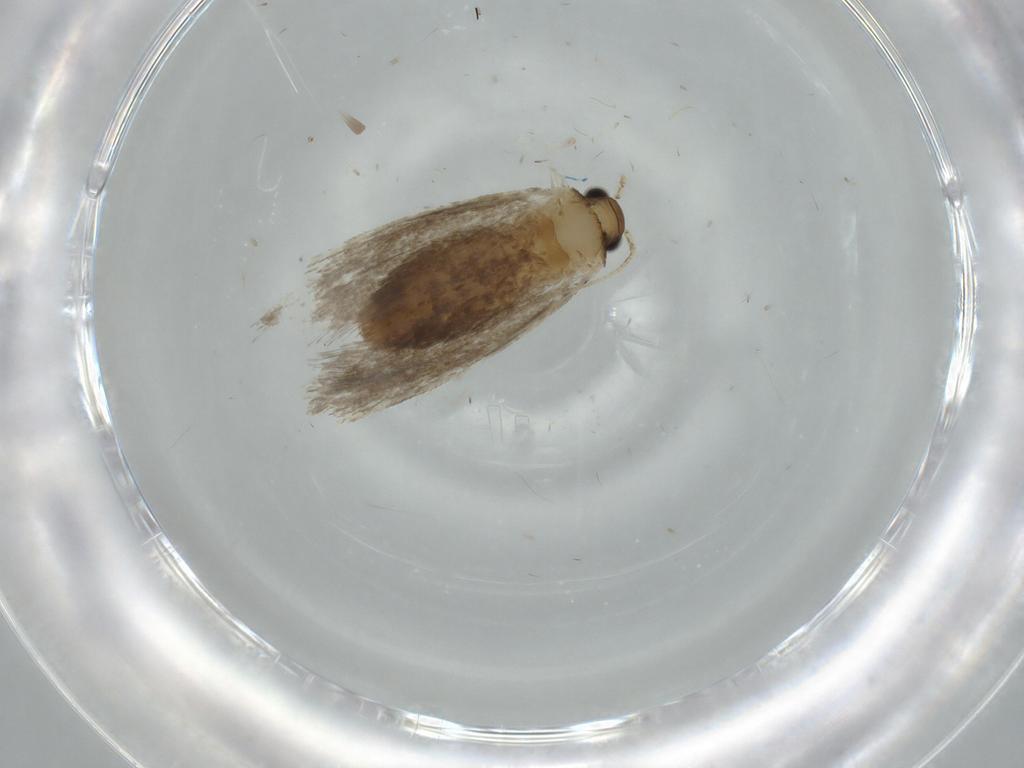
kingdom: Animalia
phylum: Arthropoda
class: Insecta
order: Lepidoptera
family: Tineidae
